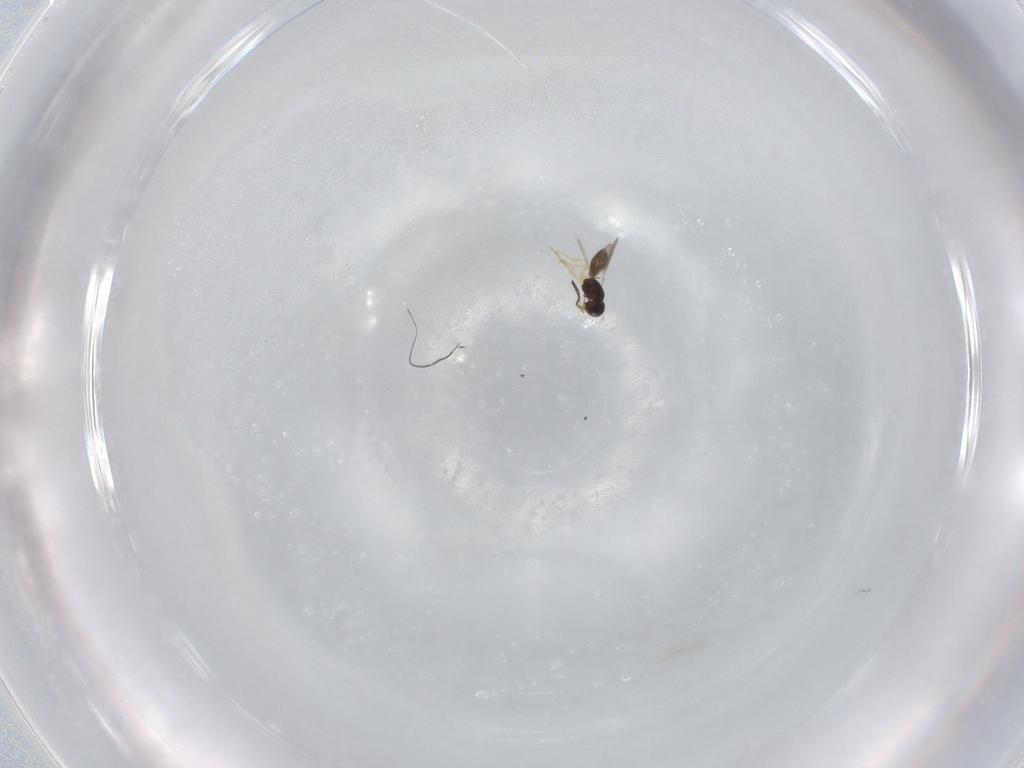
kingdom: Animalia
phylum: Arthropoda
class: Insecta
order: Hymenoptera
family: Scelionidae
